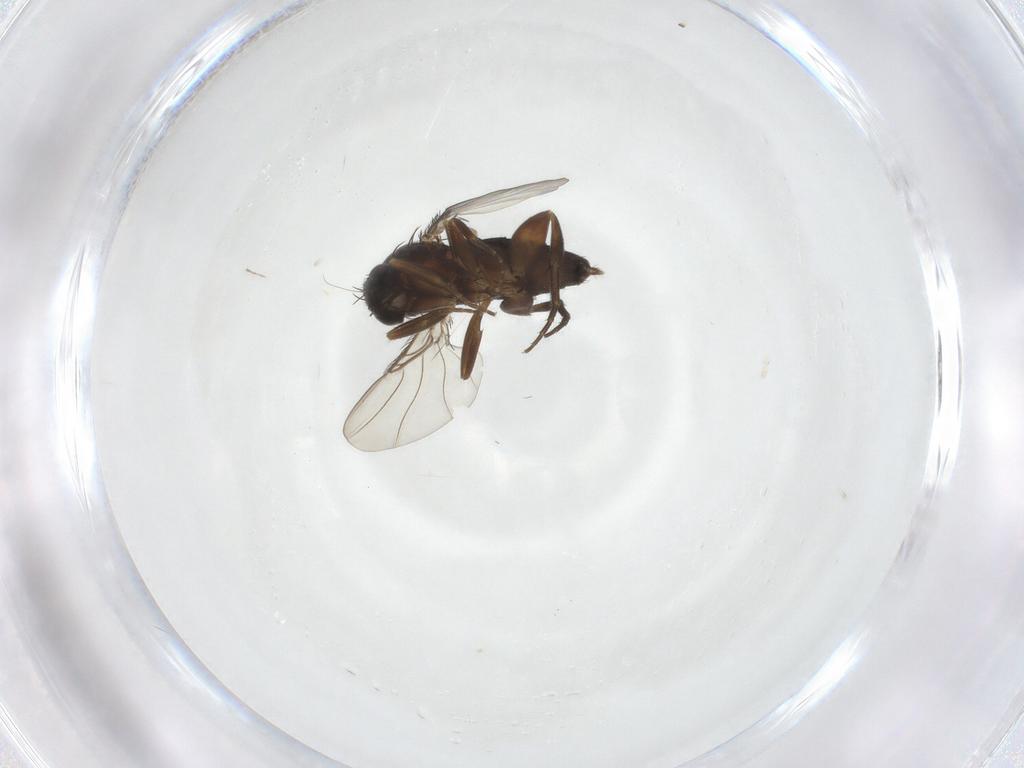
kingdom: Animalia
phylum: Arthropoda
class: Insecta
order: Diptera
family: Phoridae
